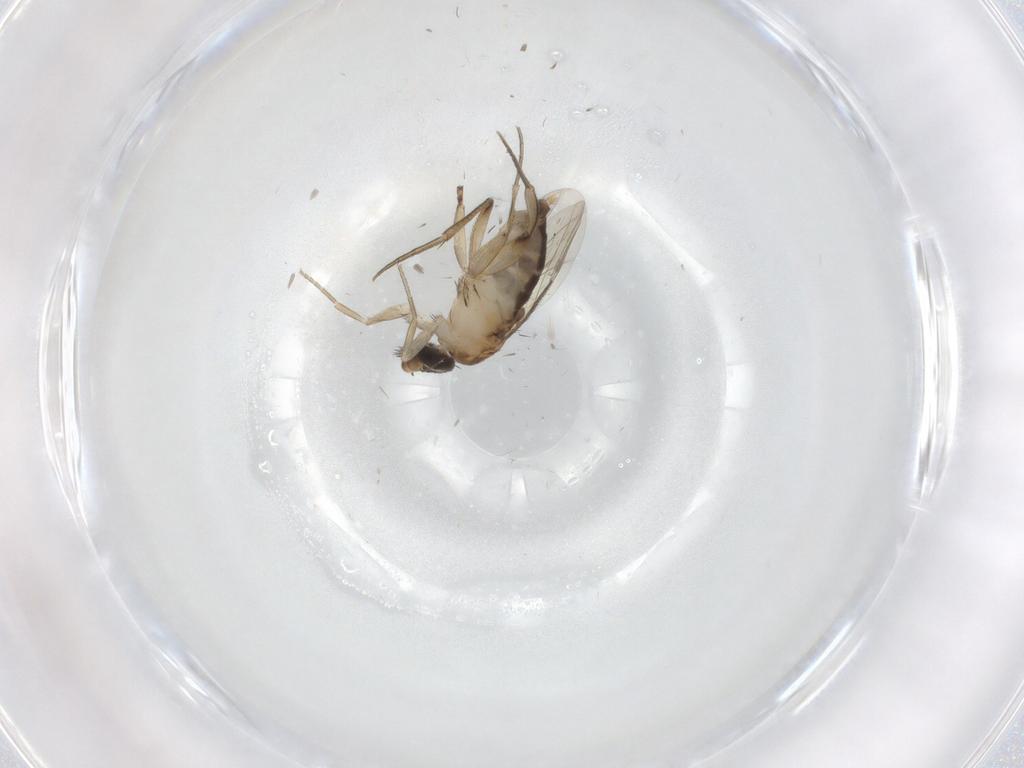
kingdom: Animalia
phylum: Arthropoda
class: Insecta
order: Diptera
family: Phoridae
